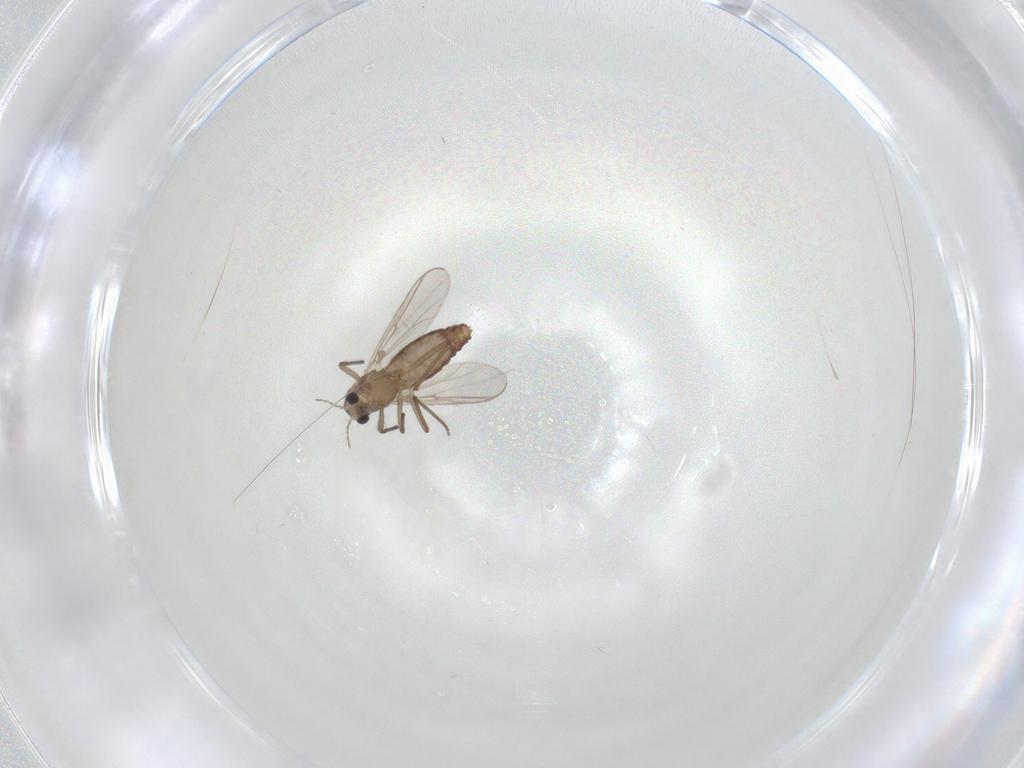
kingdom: Animalia
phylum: Arthropoda
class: Insecta
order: Diptera
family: Chironomidae
